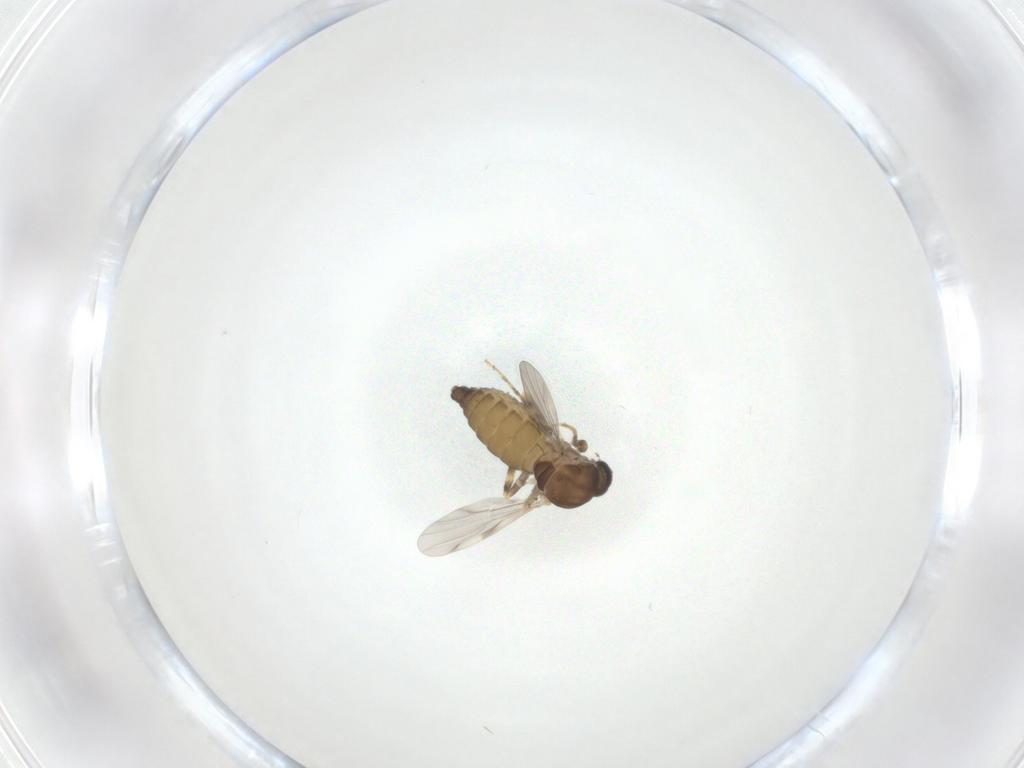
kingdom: Animalia
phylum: Arthropoda
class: Insecta
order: Diptera
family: Ceratopogonidae
